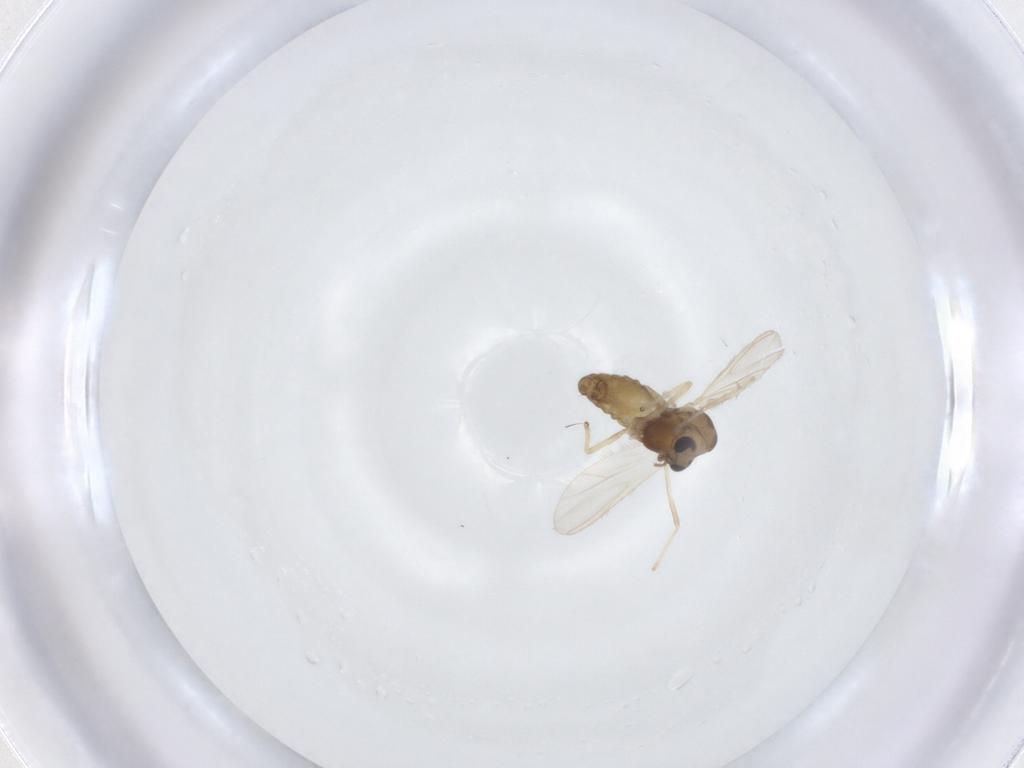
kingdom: Animalia
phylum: Arthropoda
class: Insecta
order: Diptera
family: Chironomidae
